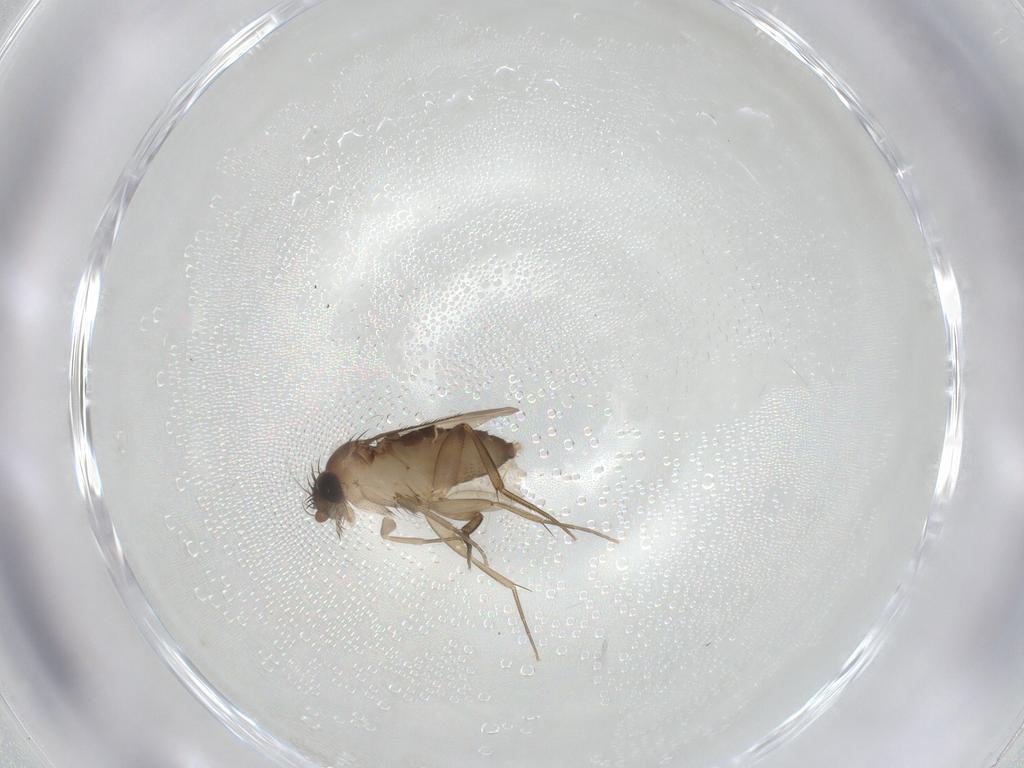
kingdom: Animalia
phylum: Arthropoda
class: Insecta
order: Diptera
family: Phoridae
